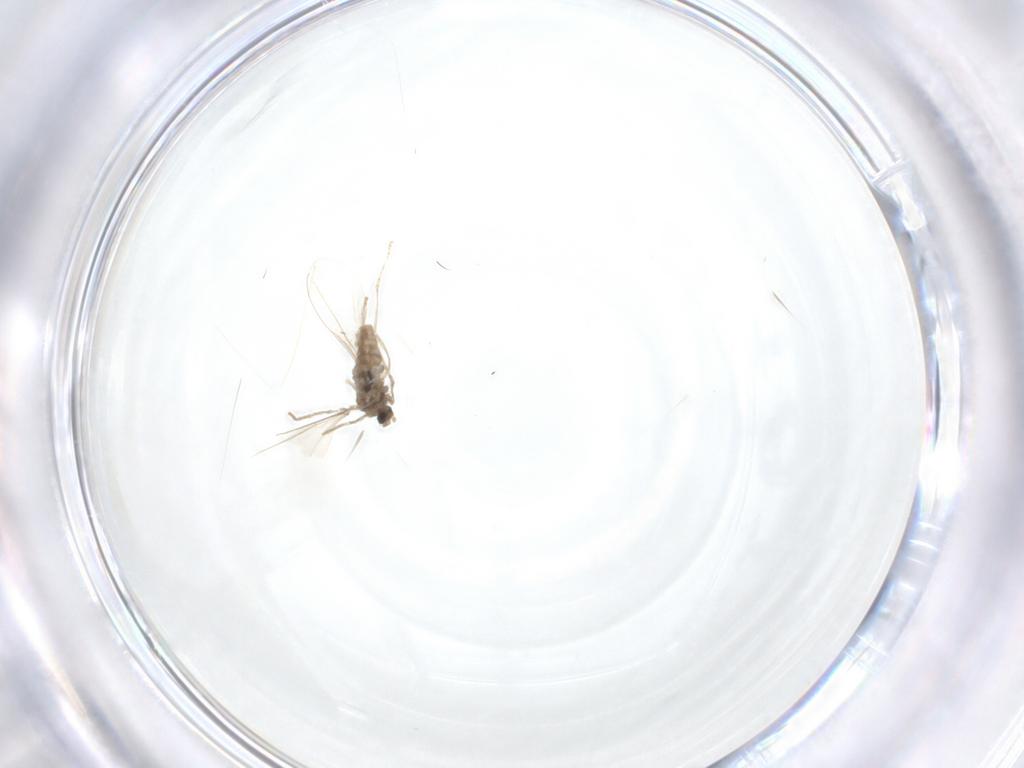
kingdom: Animalia
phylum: Arthropoda
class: Insecta
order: Diptera
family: Cecidomyiidae
